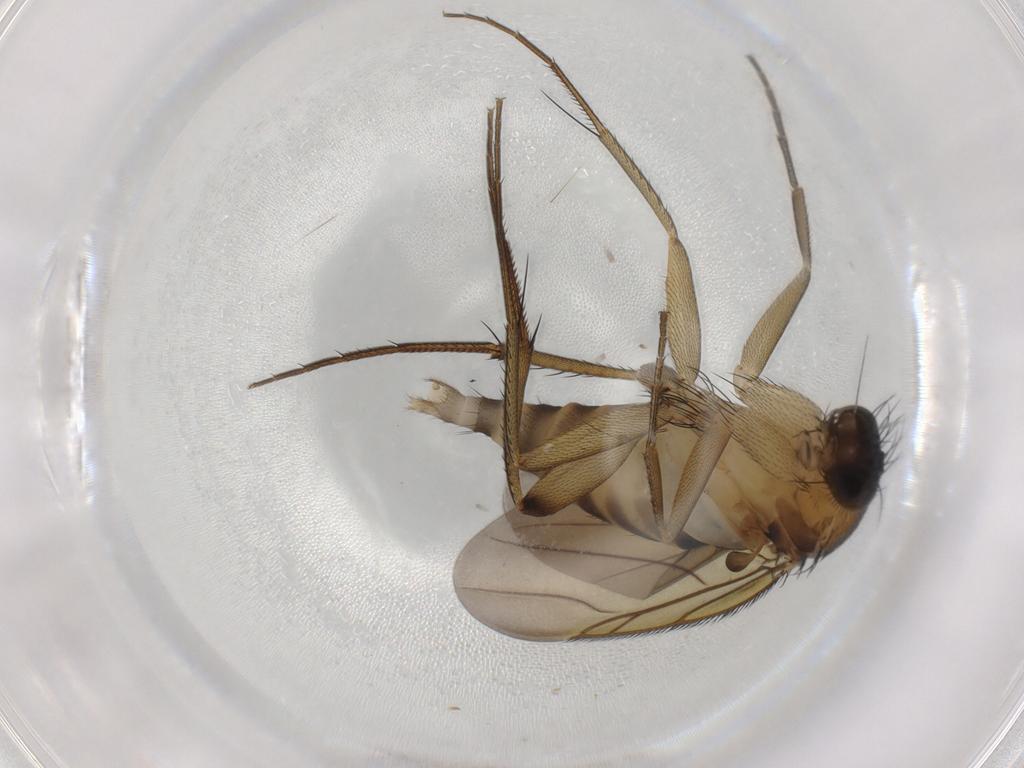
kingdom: Animalia
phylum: Arthropoda
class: Insecta
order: Diptera
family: Phoridae
